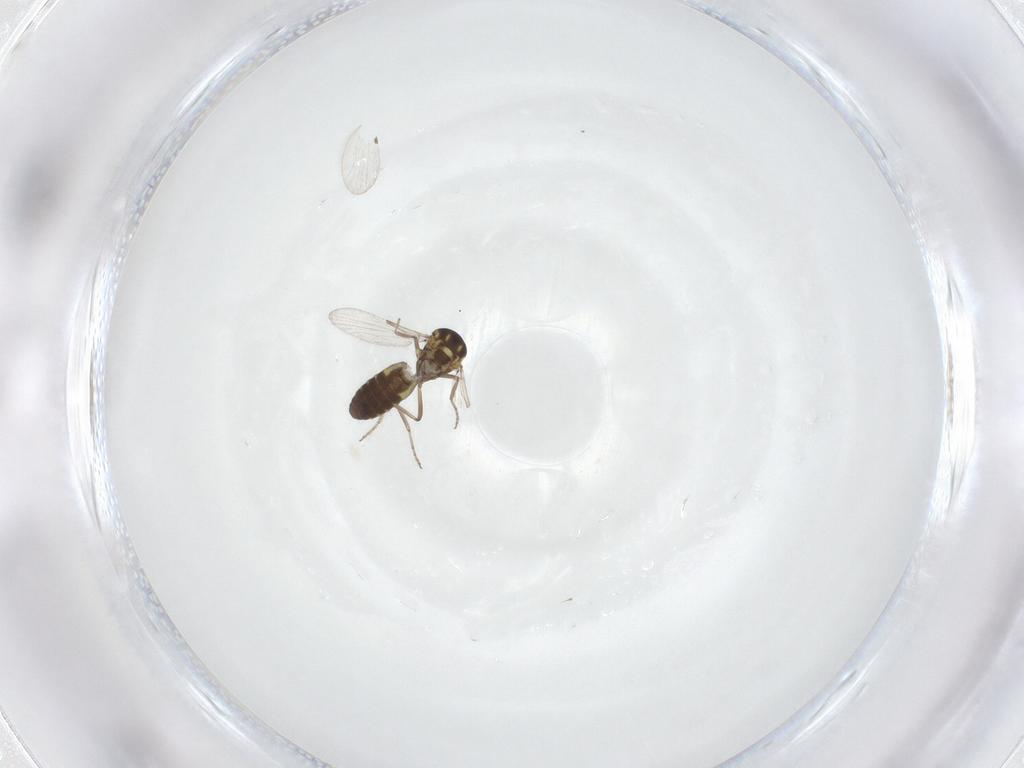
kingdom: Animalia
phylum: Arthropoda
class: Insecta
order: Diptera
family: Ceratopogonidae
